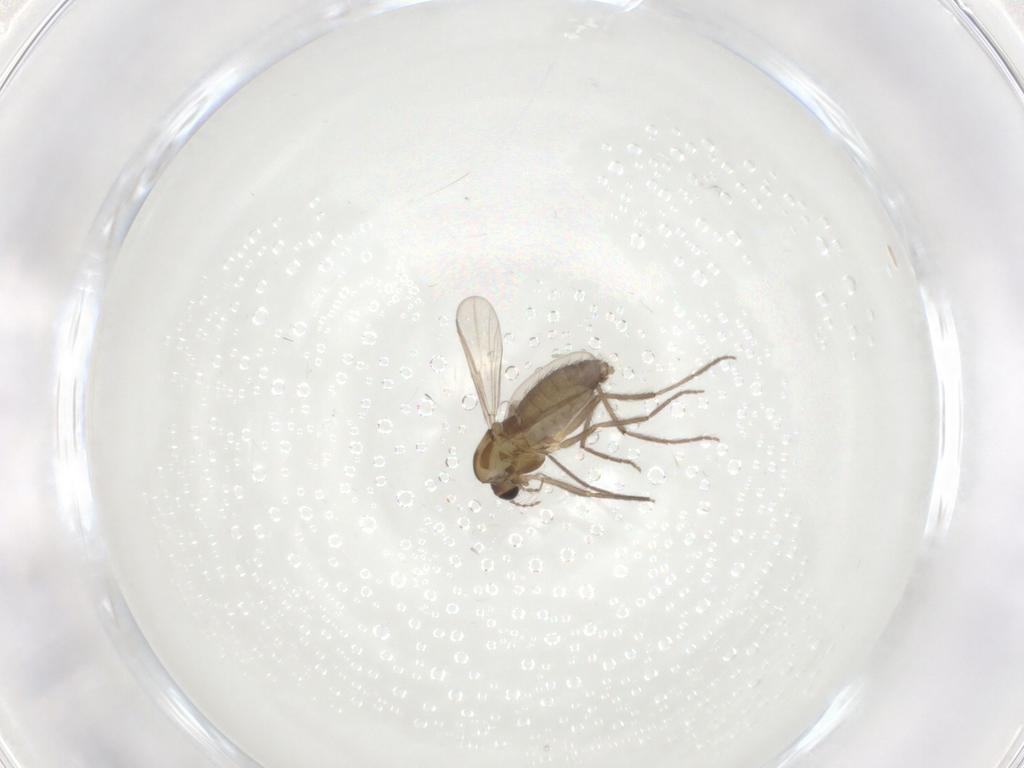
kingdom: Animalia
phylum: Arthropoda
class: Insecta
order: Diptera
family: Chironomidae
